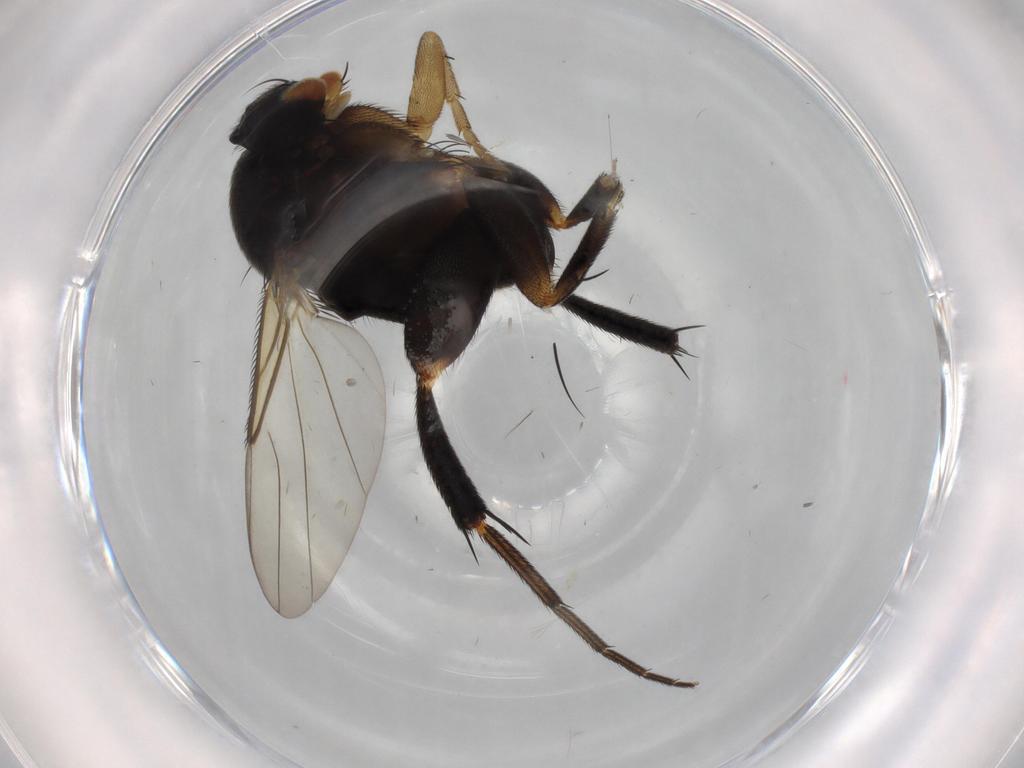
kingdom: Animalia
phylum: Arthropoda
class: Insecta
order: Diptera
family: Phoridae
